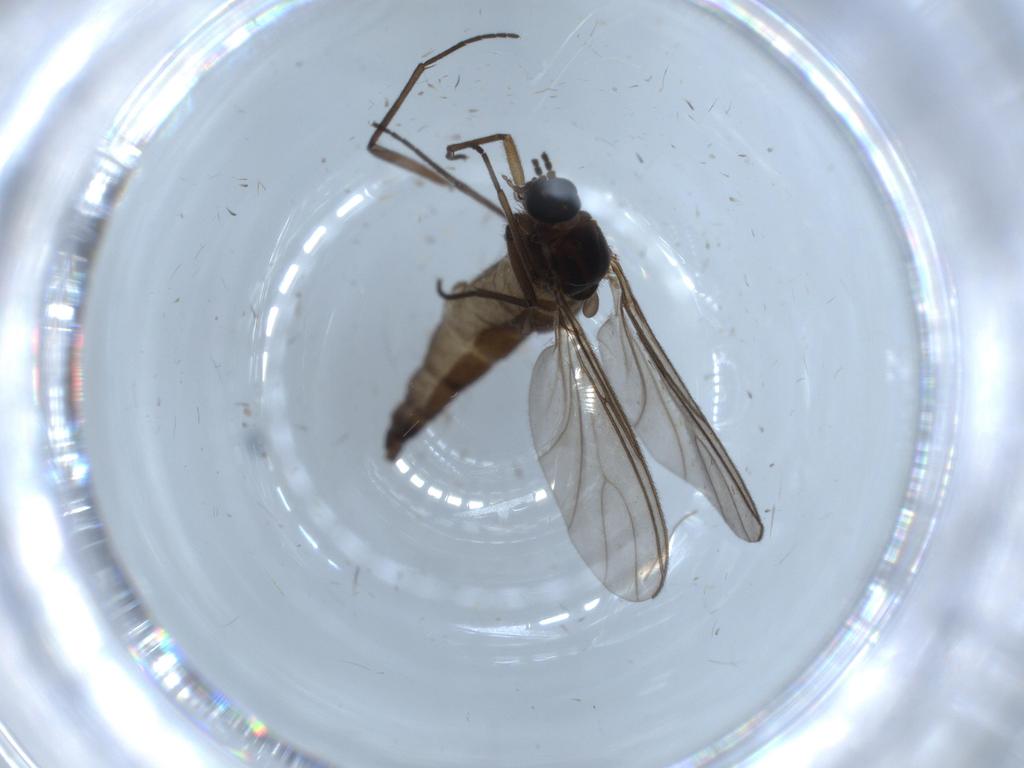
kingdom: Animalia
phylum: Arthropoda
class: Insecta
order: Diptera
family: Sciaridae
